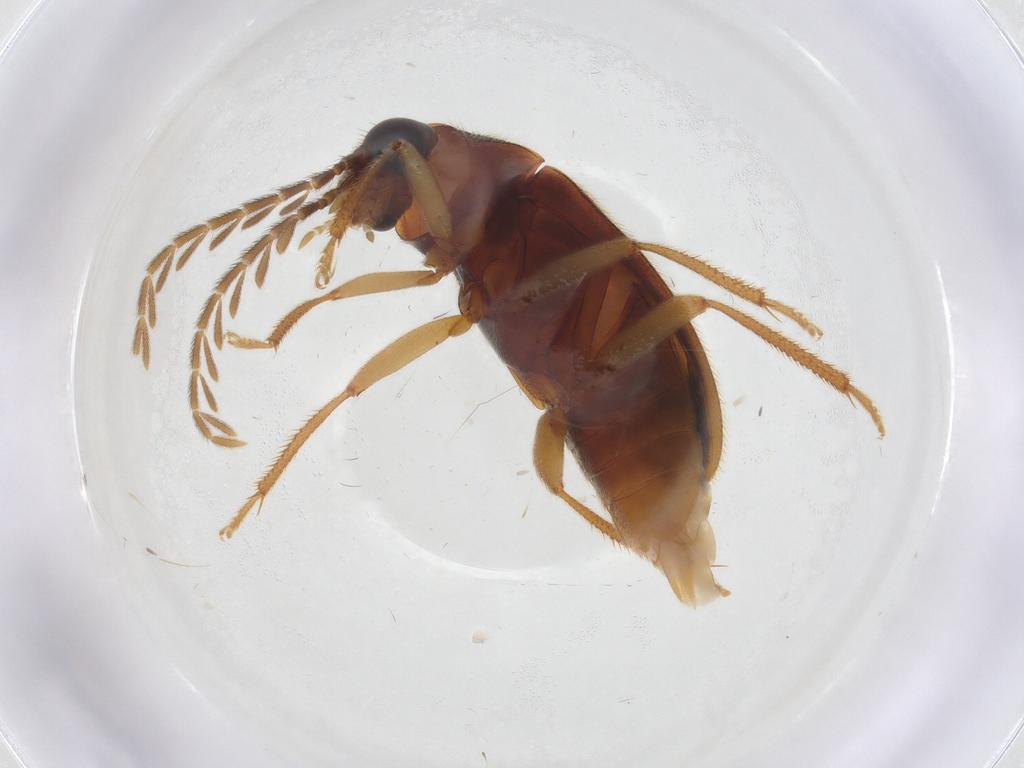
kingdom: Animalia
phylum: Arthropoda
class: Insecta
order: Coleoptera
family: Ptilodactylidae
